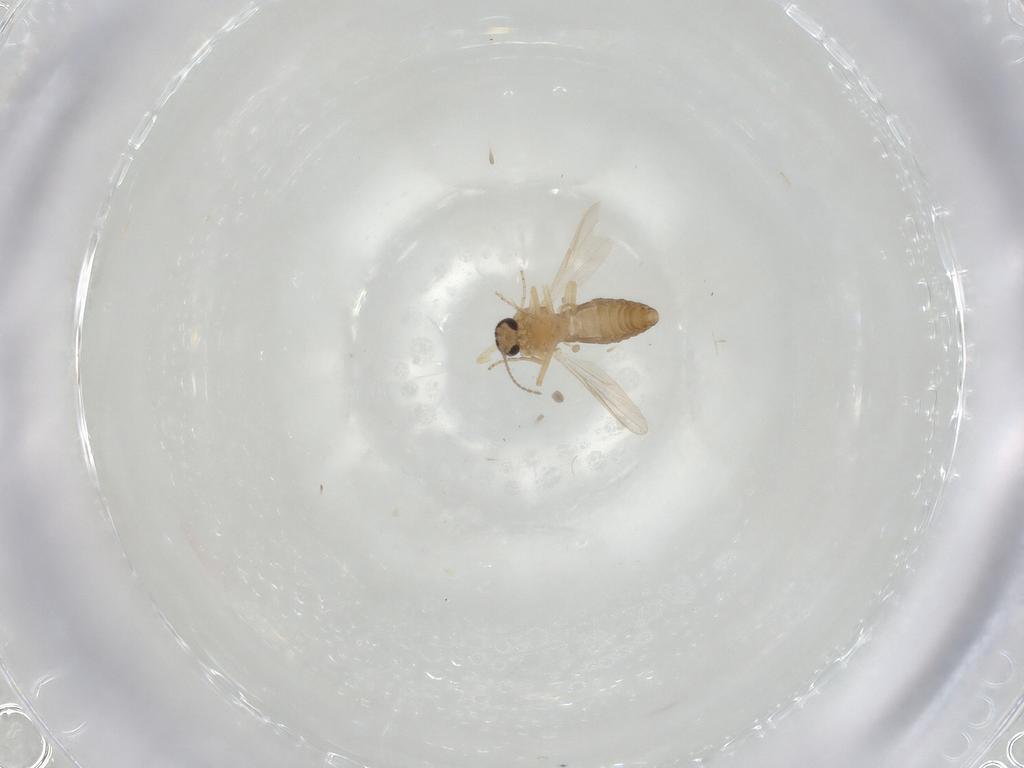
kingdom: Animalia
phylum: Arthropoda
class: Insecta
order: Diptera
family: Ceratopogonidae
